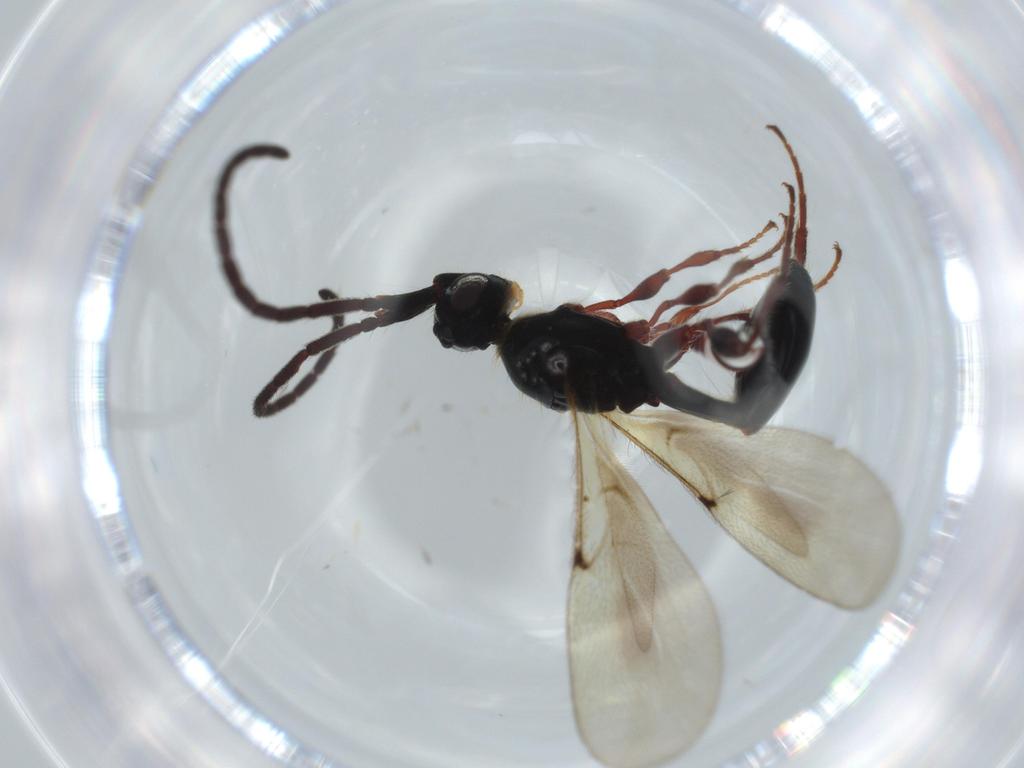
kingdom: Animalia
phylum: Arthropoda
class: Insecta
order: Hymenoptera
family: Diapriidae
